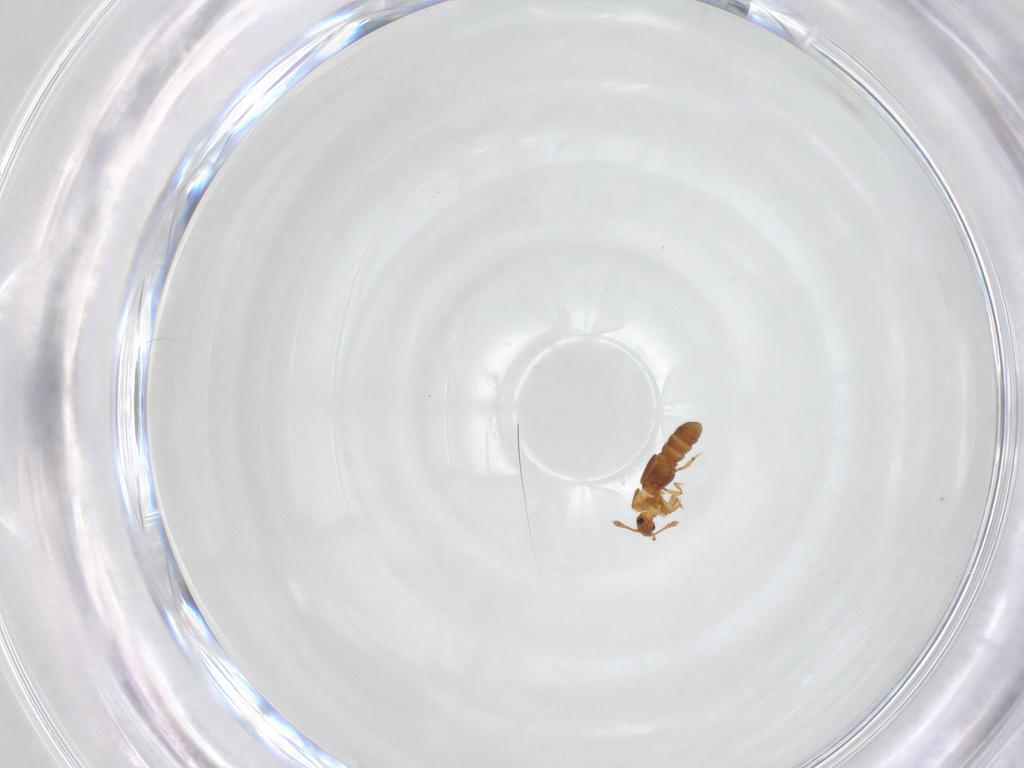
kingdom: Animalia
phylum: Arthropoda
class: Insecta
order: Coleoptera
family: Staphylinidae
